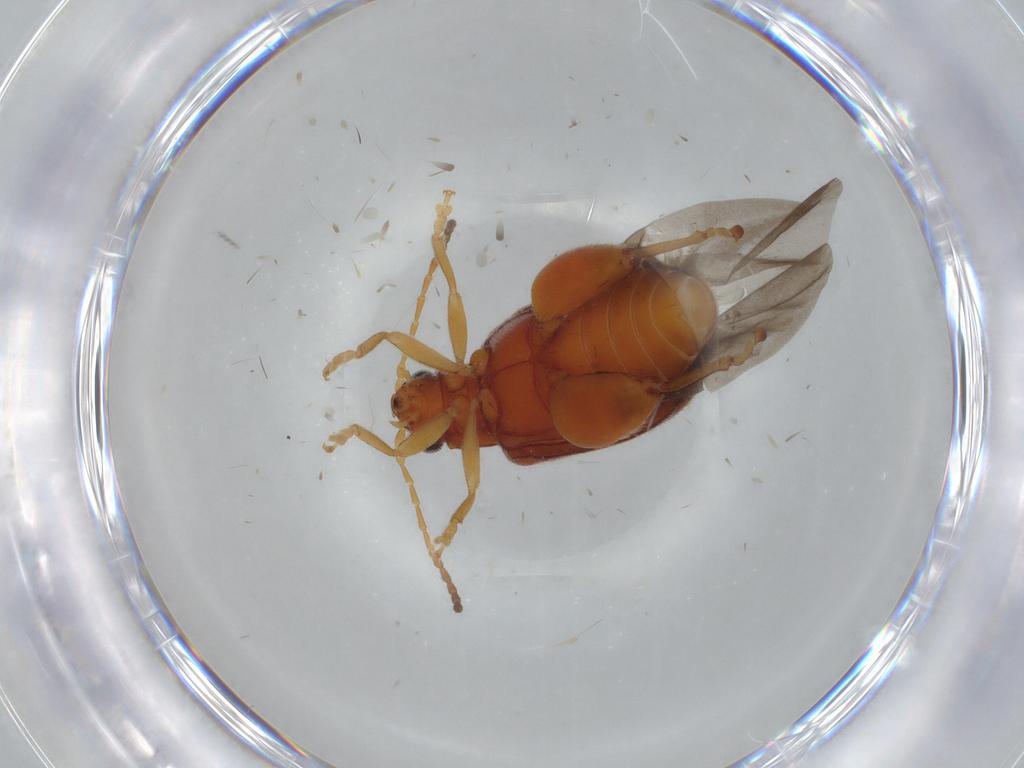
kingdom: Animalia
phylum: Arthropoda
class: Insecta
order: Coleoptera
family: Chrysomelidae
